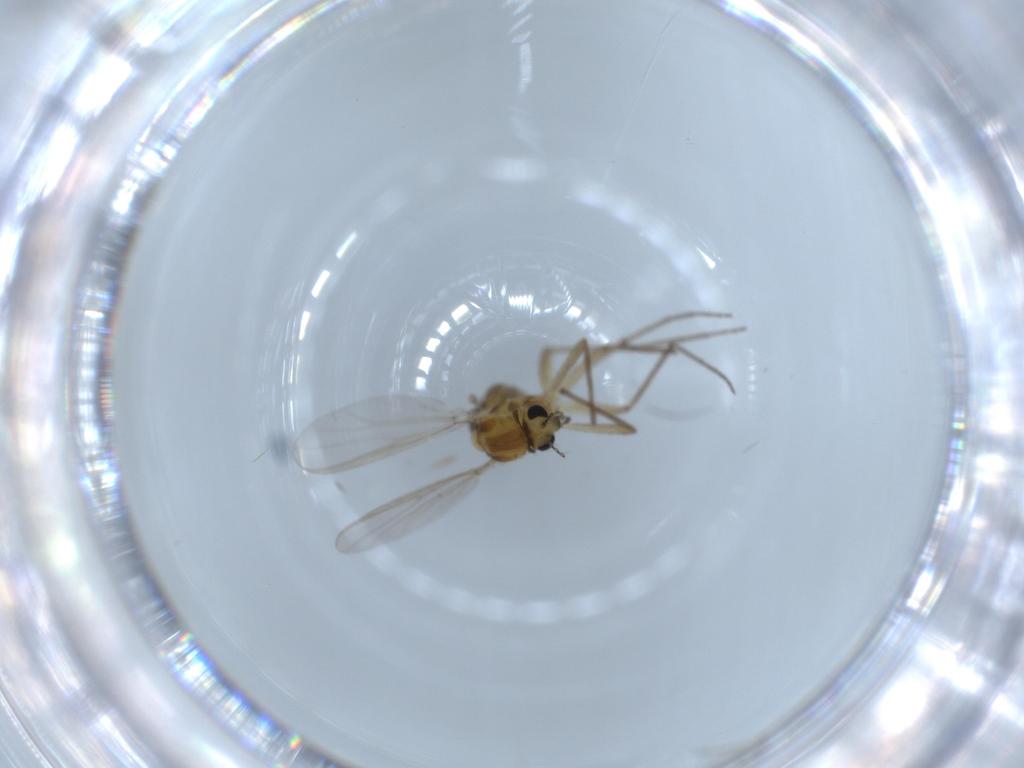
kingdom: Animalia
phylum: Arthropoda
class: Insecta
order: Diptera
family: Chironomidae
